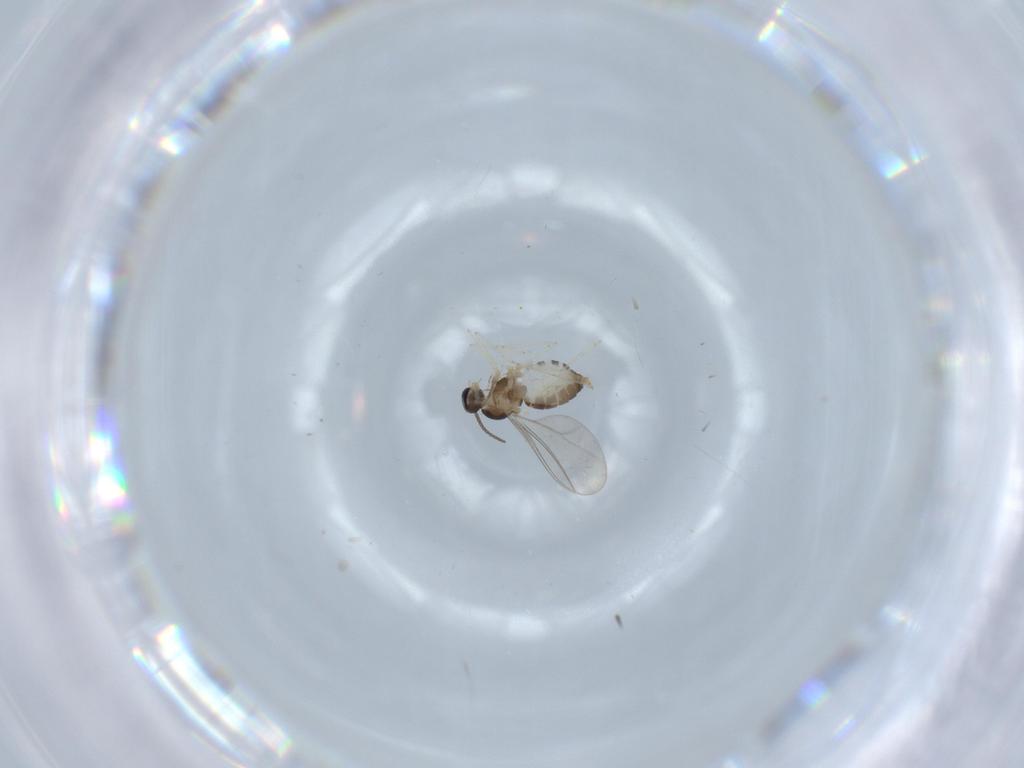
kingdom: Animalia
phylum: Arthropoda
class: Insecta
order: Diptera
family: Cecidomyiidae
